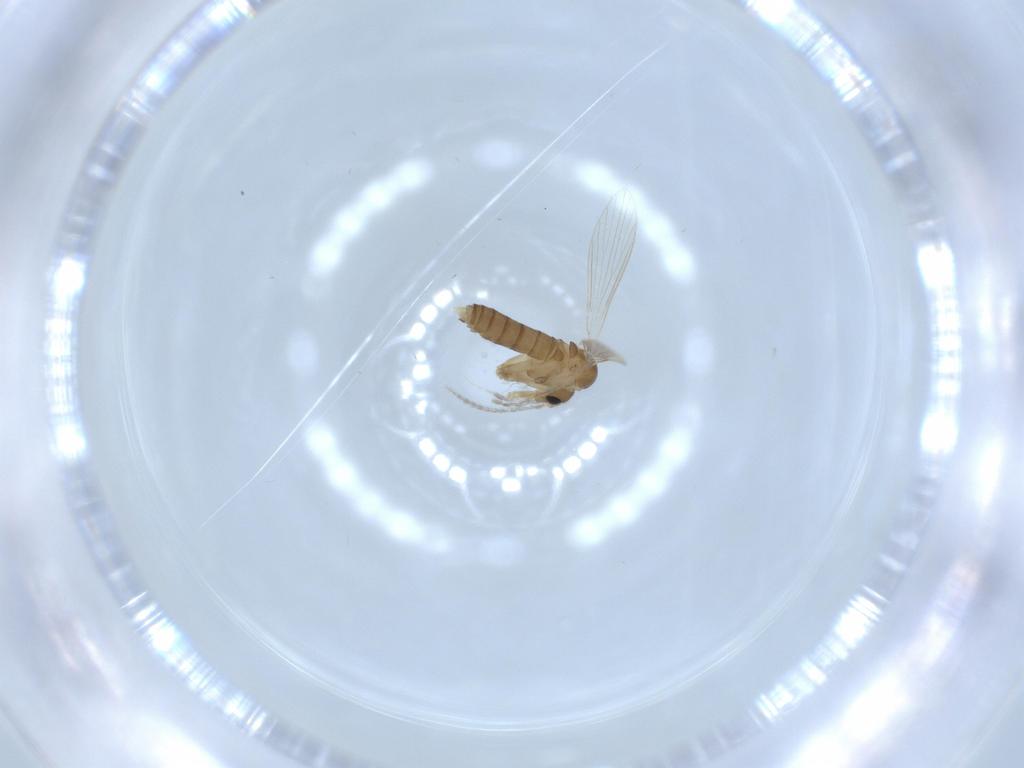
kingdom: Animalia
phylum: Arthropoda
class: Insecta
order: Diptera
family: Psychodidae
